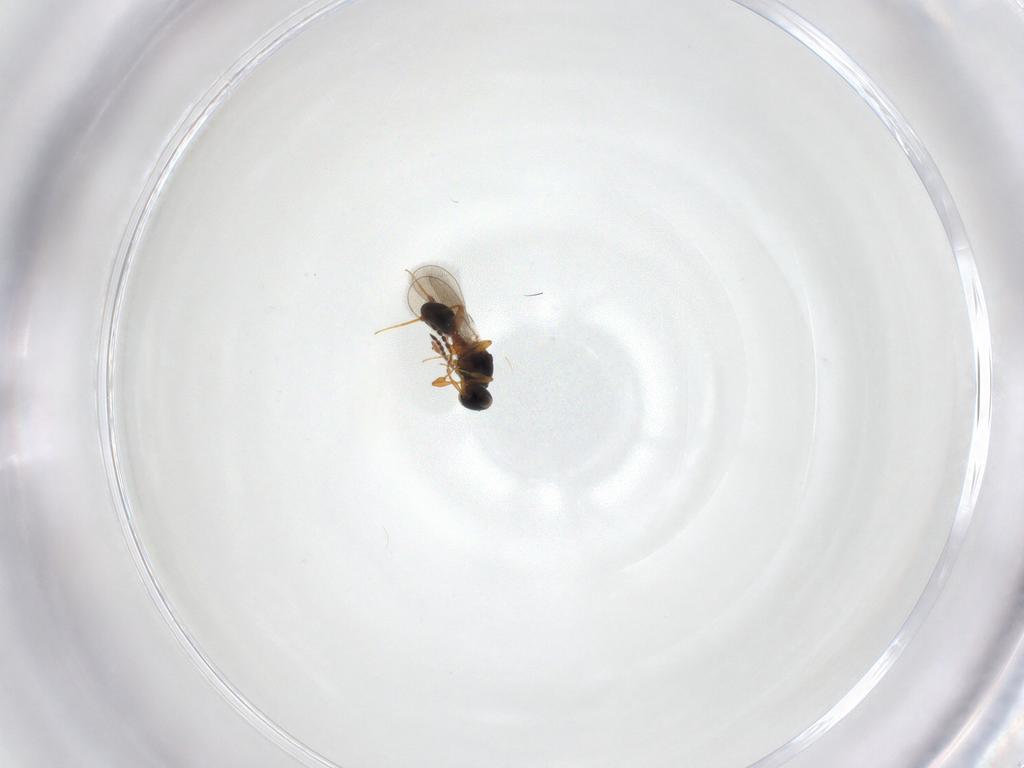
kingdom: Animalia
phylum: Arthropoda
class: Insecta
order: Hymenoptera
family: Platygastridae
